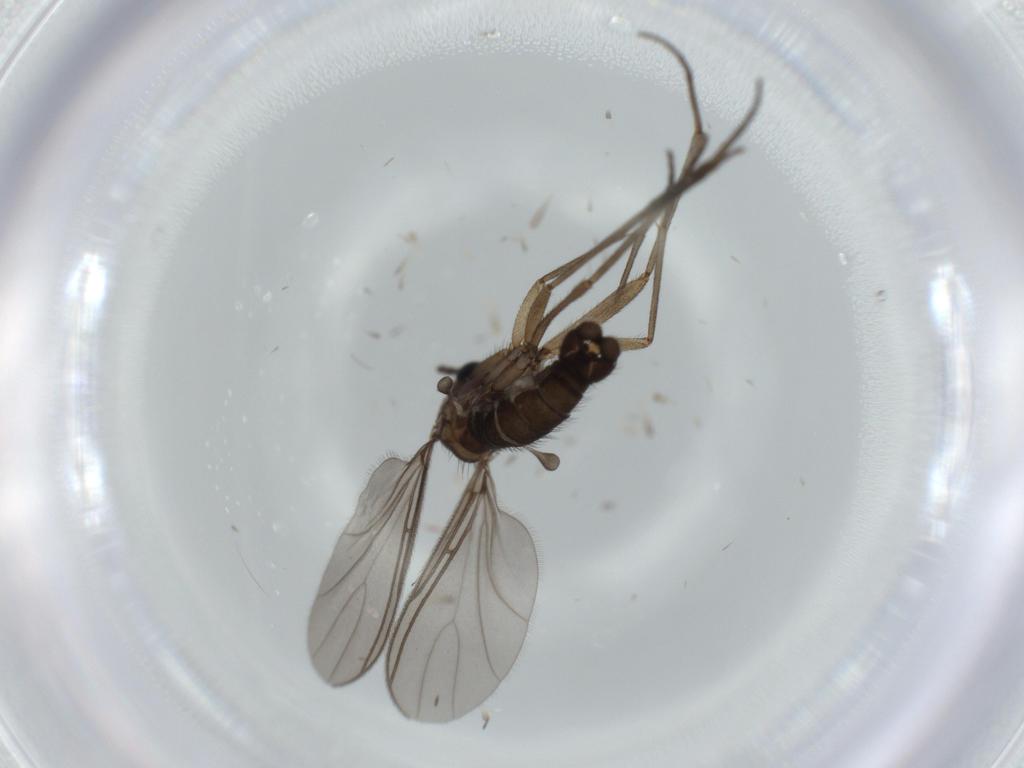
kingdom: Animalia
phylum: Arthropoda
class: Insecta
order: Diptera
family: Sciaridae
